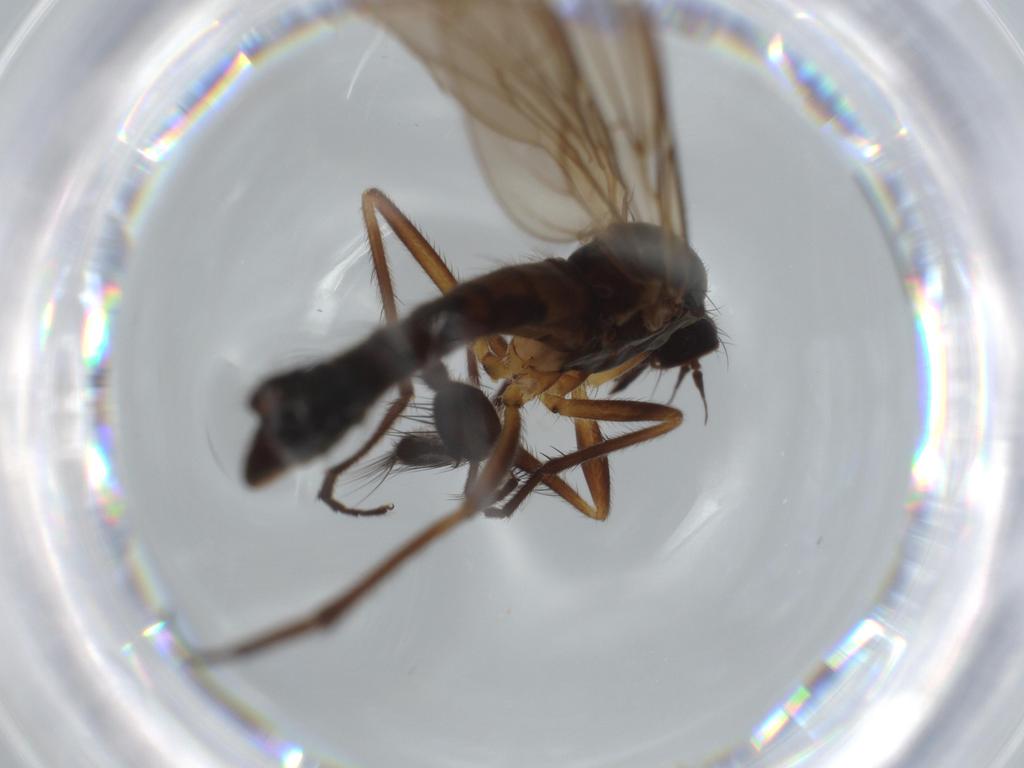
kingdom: Animalia
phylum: Arthropoda
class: Insecta
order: Diptera
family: Empididae
